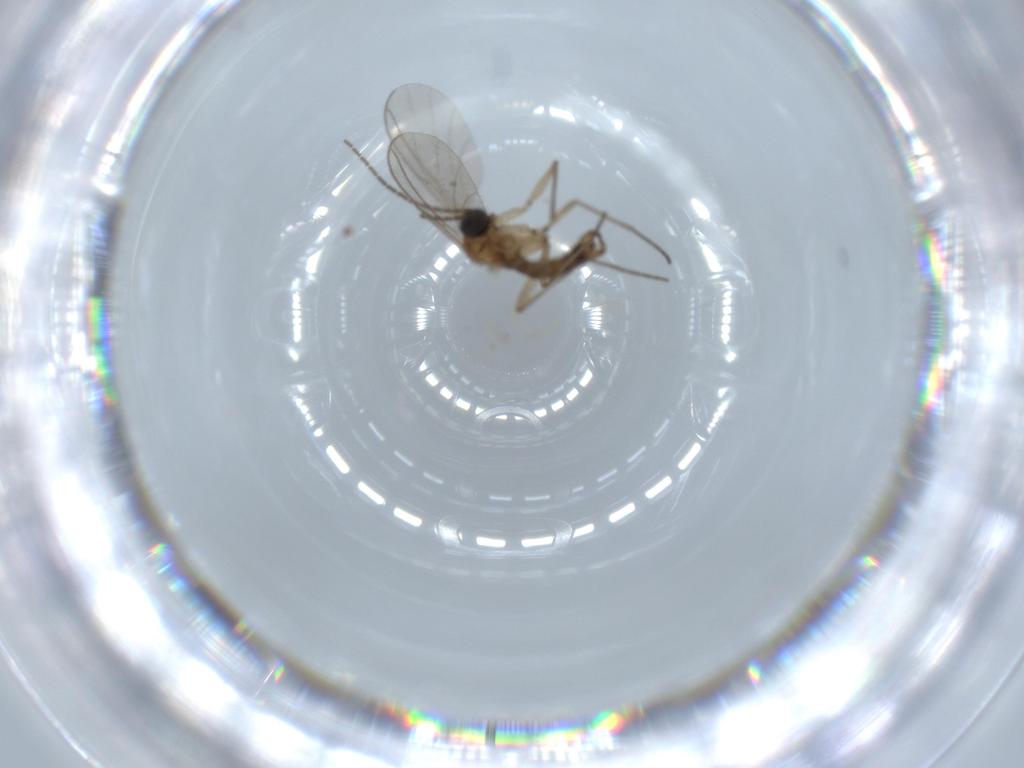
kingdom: Animalia
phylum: Arthropoda
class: Insecta
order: Diptera
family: Sciaridae
